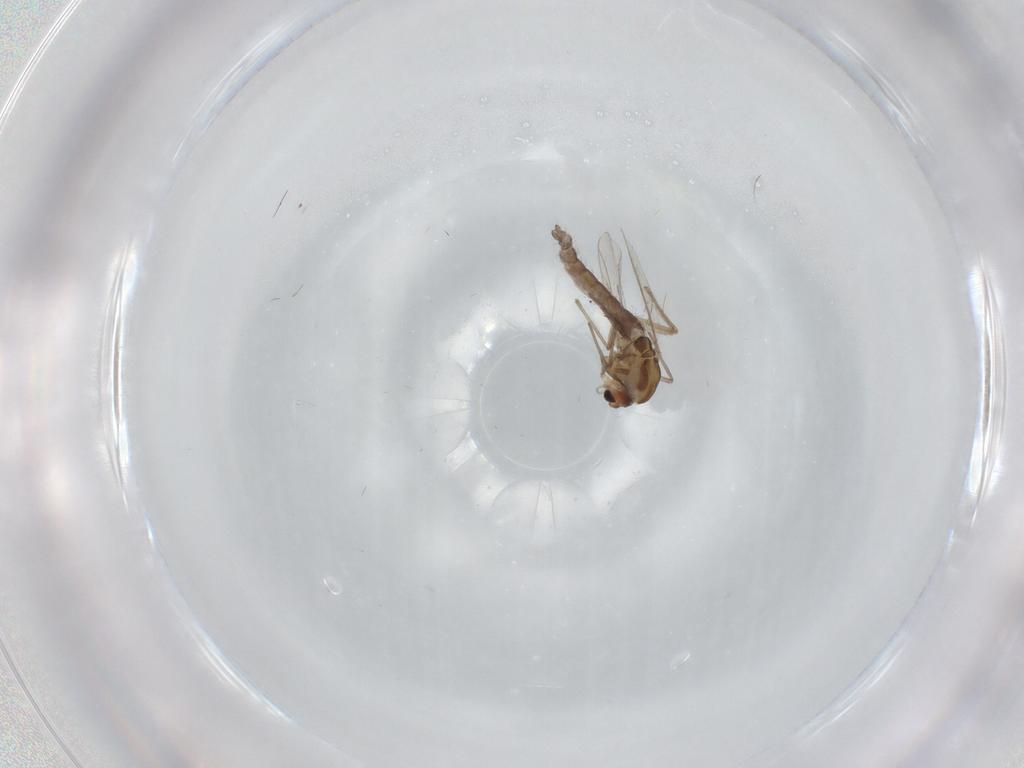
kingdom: Animalia
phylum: Arthropoda
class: Insecta
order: Diptera
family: Chironomidae
